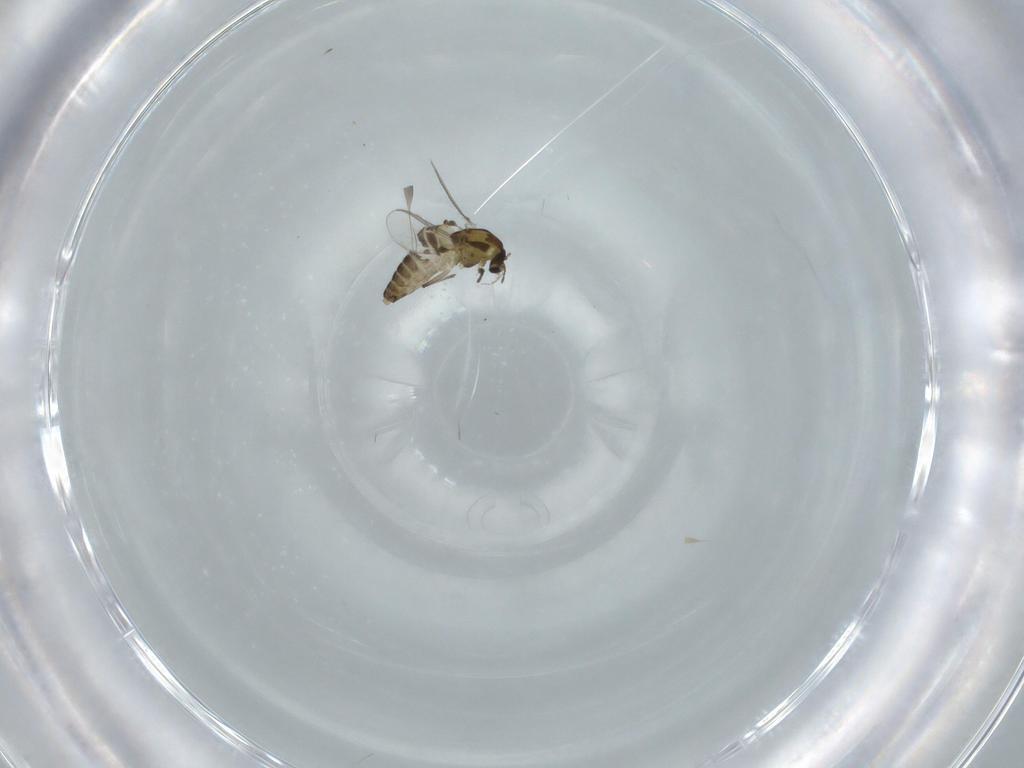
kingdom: Animalia
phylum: Arthropoda
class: Insecta
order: Diptera
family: Chironomidae
